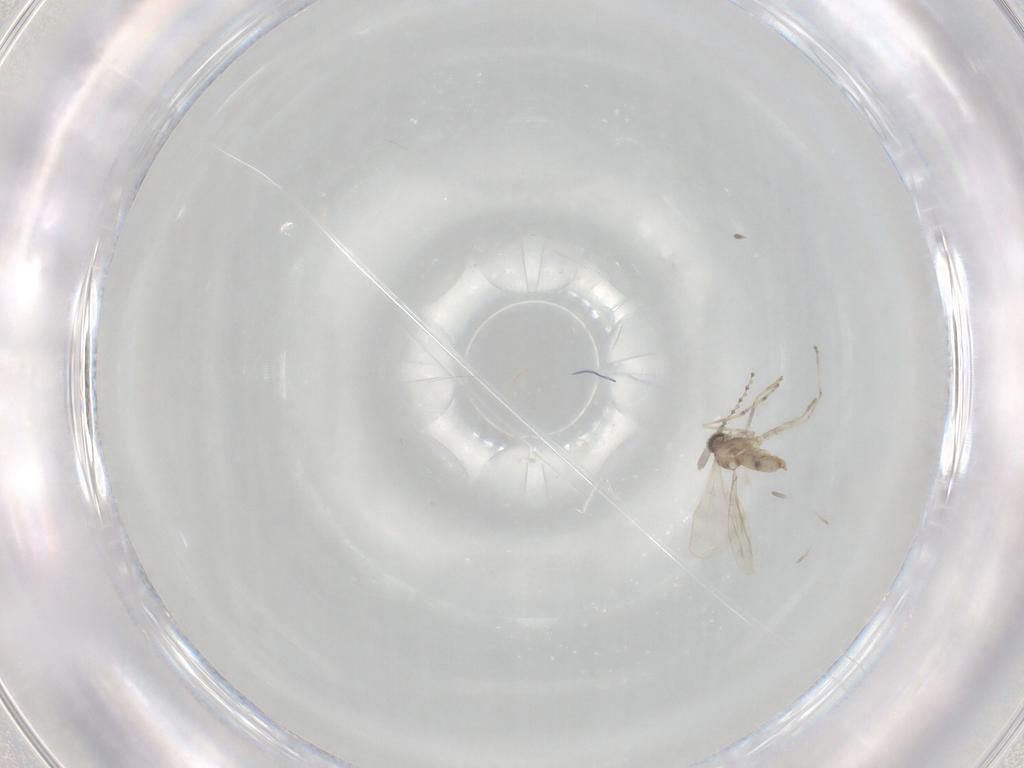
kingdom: Animalia
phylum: Arthropoda
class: Insecta
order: Diptera
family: Cecidomyiidae
